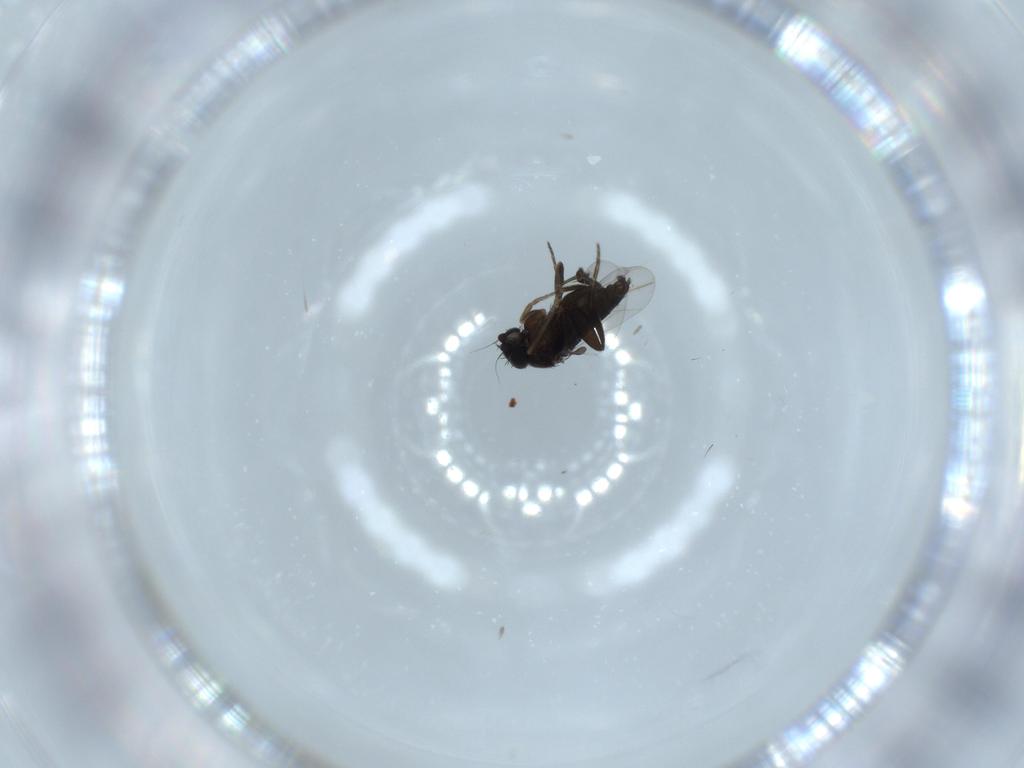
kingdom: Animalia
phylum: Arthropoda
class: Insecta
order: Diptera
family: Phoridae
